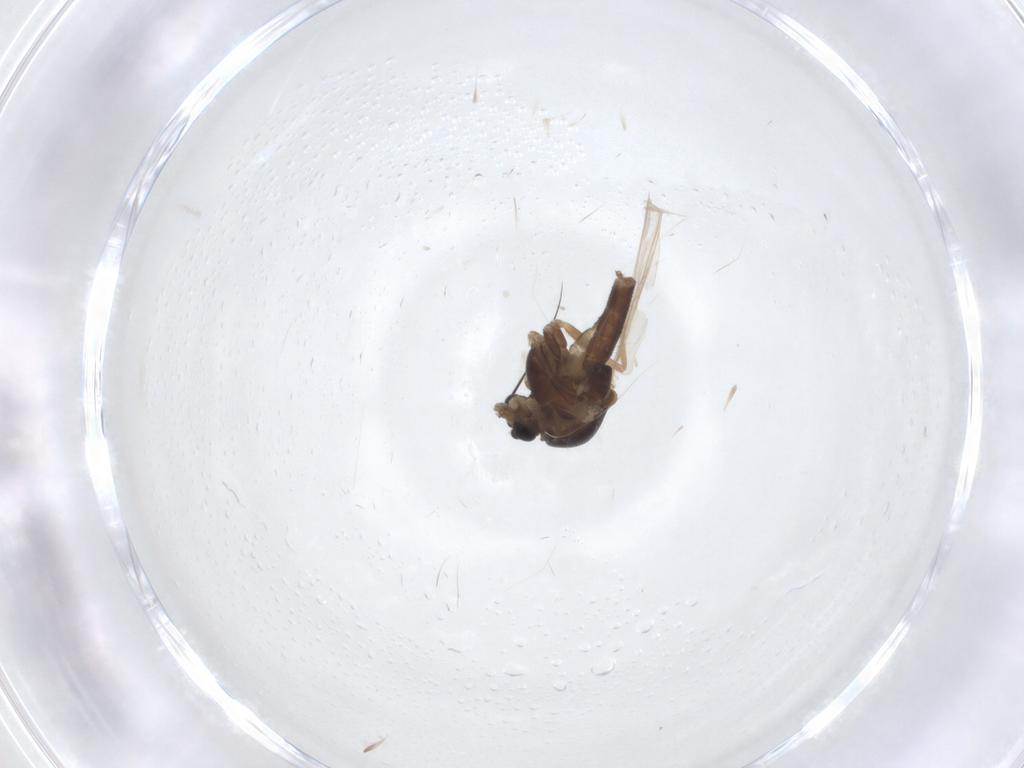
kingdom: Animalia
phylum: Arthropoda
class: Insecta
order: Diptera
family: Chironomidae
